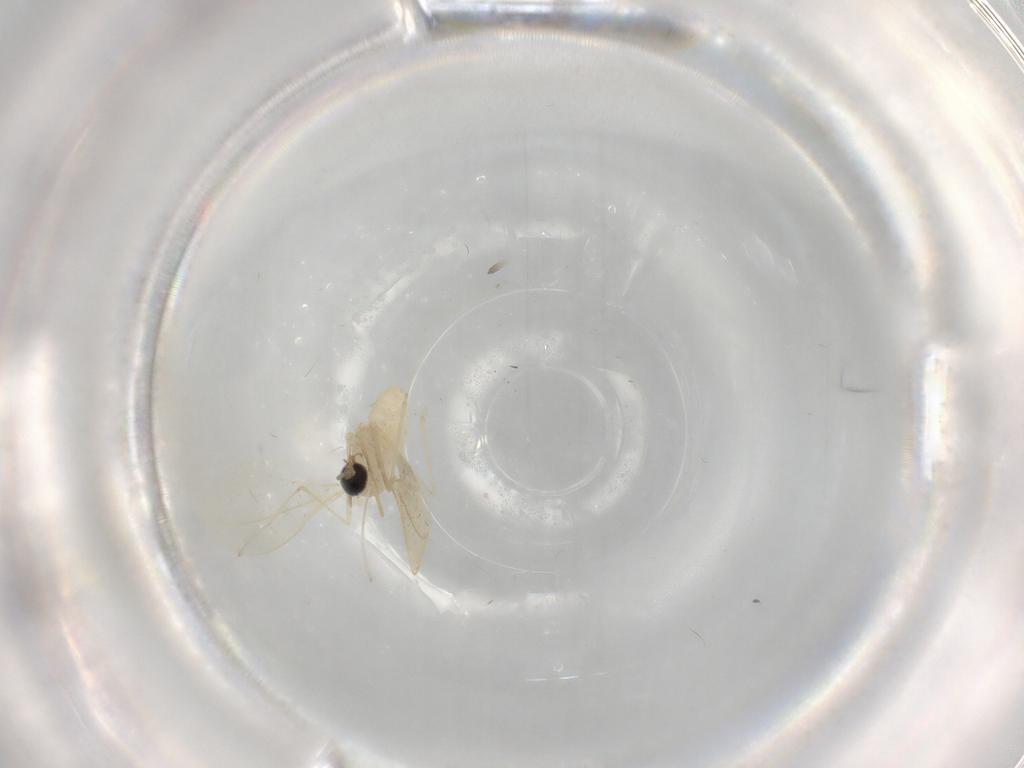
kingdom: Animalia
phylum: Arthropoda
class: Insecta
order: Diptera
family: Cecidomyiidae
